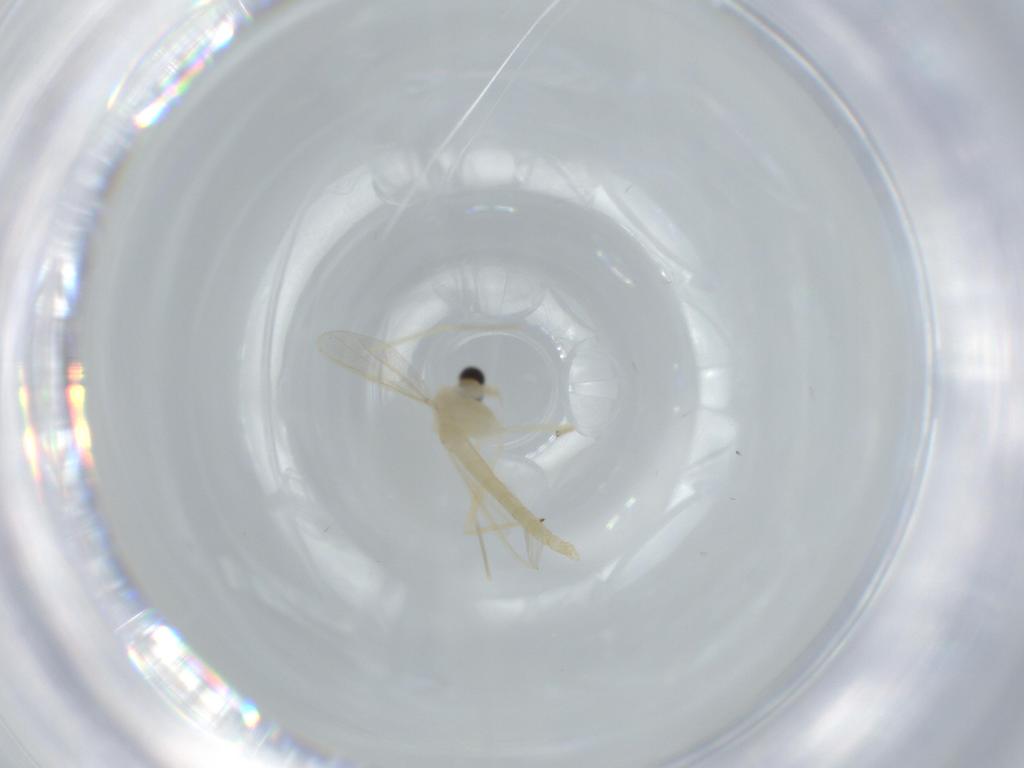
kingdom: Animalia
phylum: Arthropoda
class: Insecta
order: Diptera
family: Chironomidae
